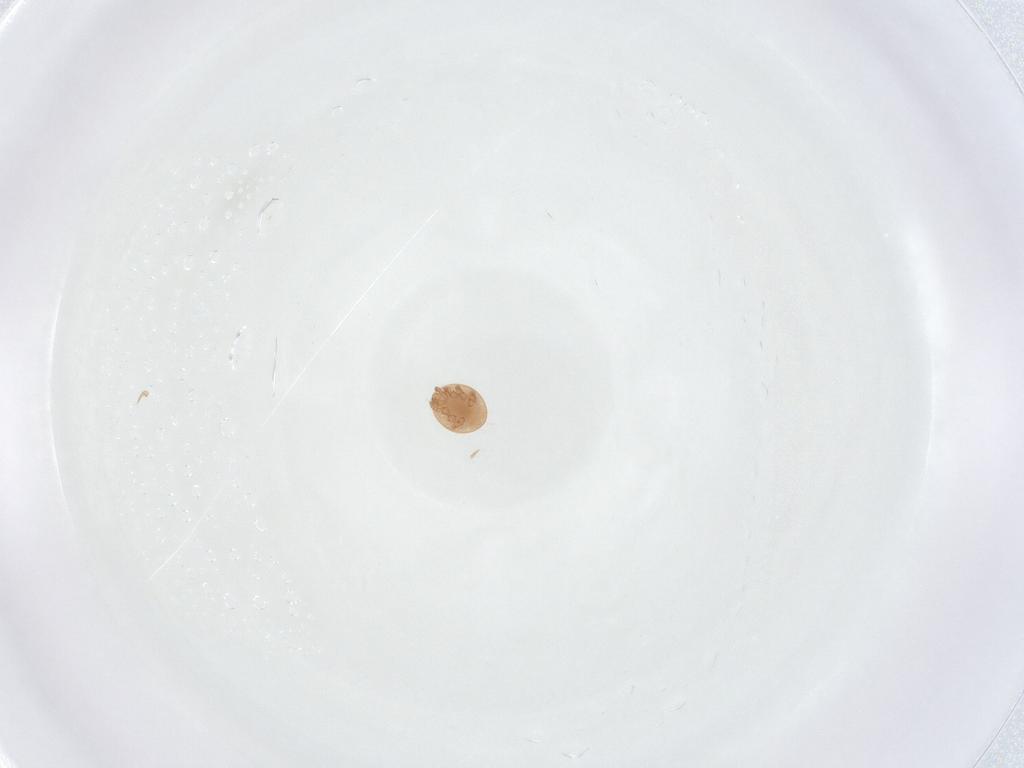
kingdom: Animalia
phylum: Arthropoda
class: Arachnida
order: Mesostigmata
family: Trematuridae
